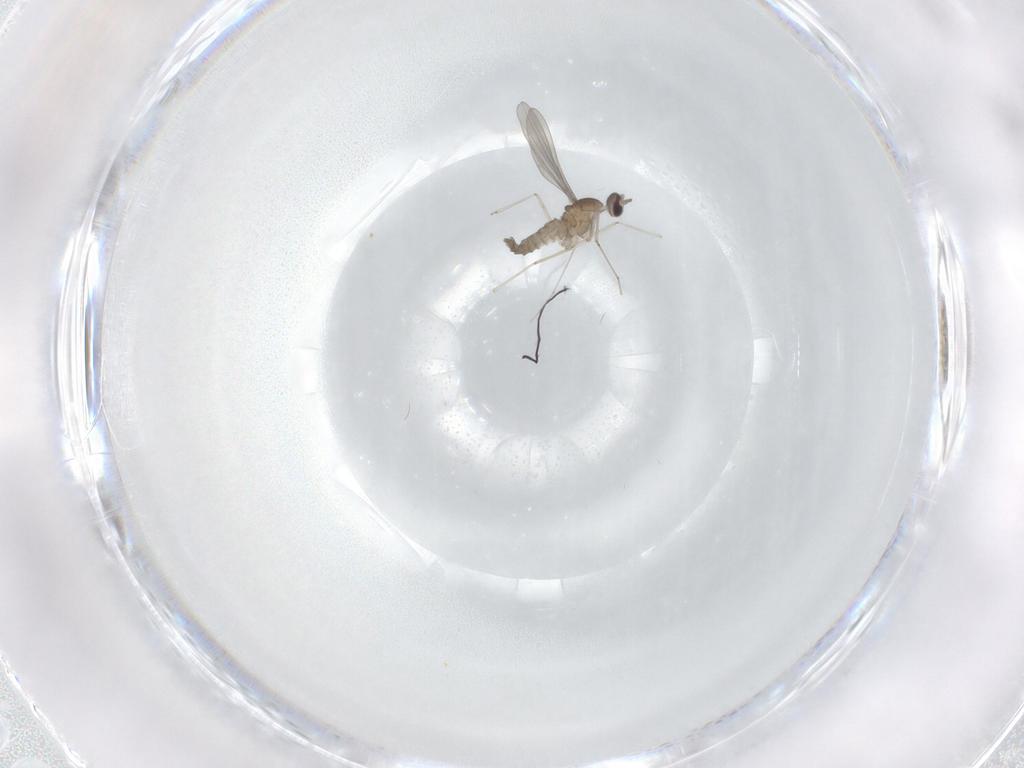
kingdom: Animalia
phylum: Arthropoda
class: Insecta
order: Diptera
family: Cecidomyiidae
